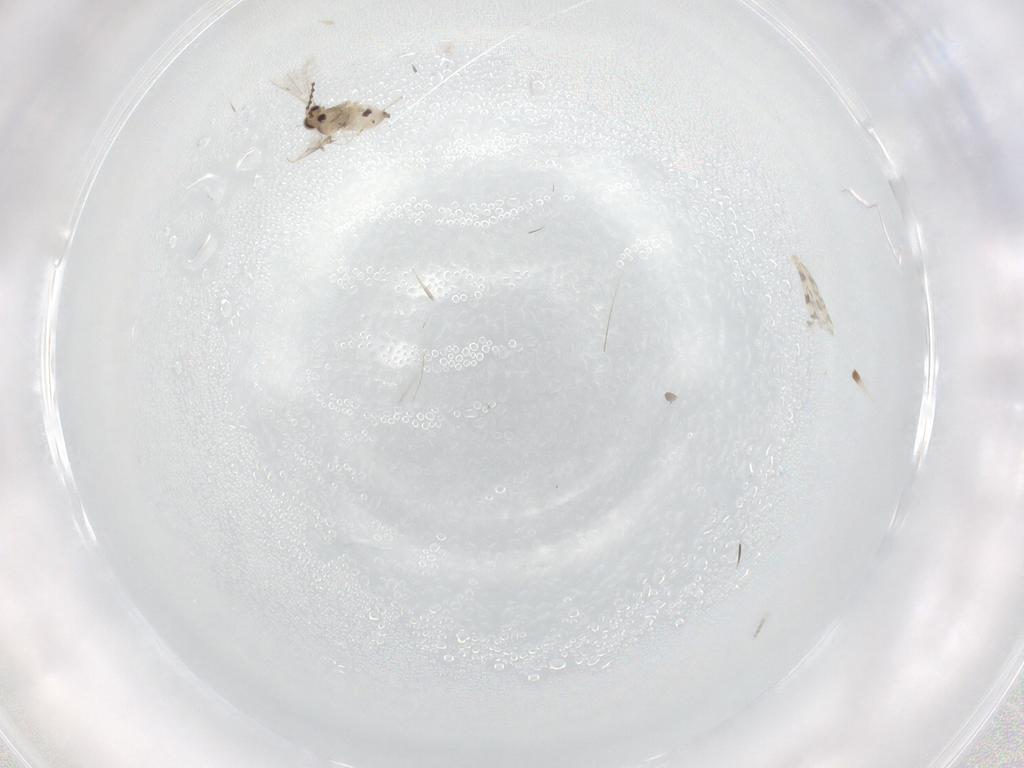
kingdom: Animalia
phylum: Arthropoda
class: Insecta
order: Diptera
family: Cecidomyiidae
